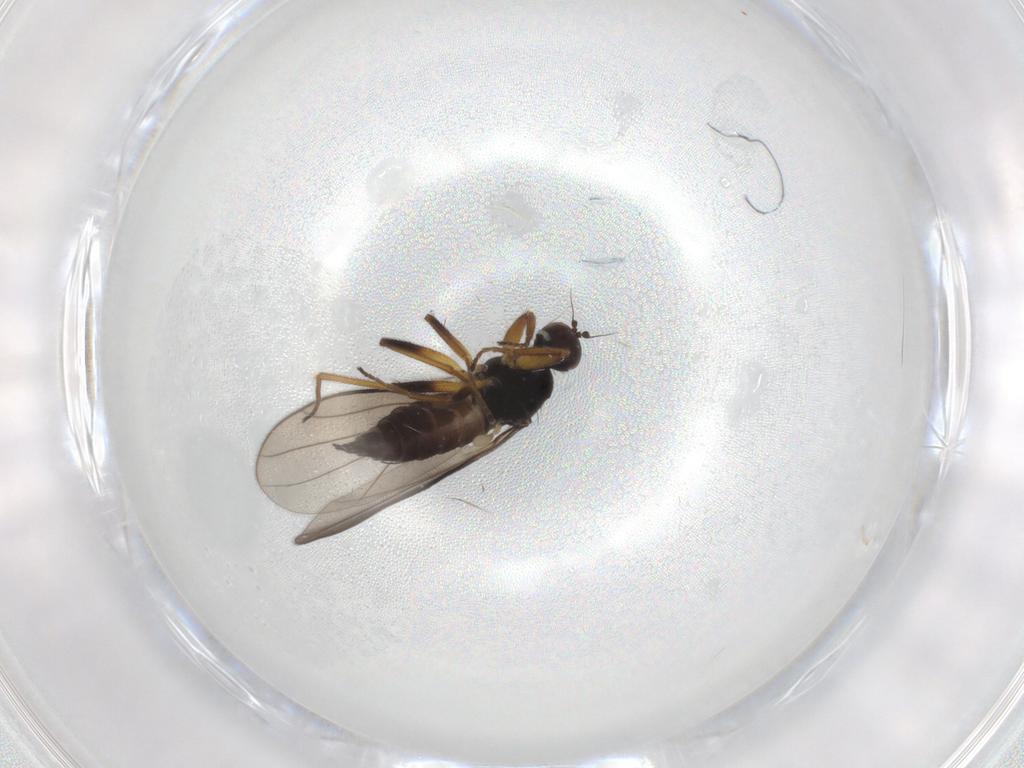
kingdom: Animalia
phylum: Arthropoda
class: Insecta
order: Diptera
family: Hybotidae
